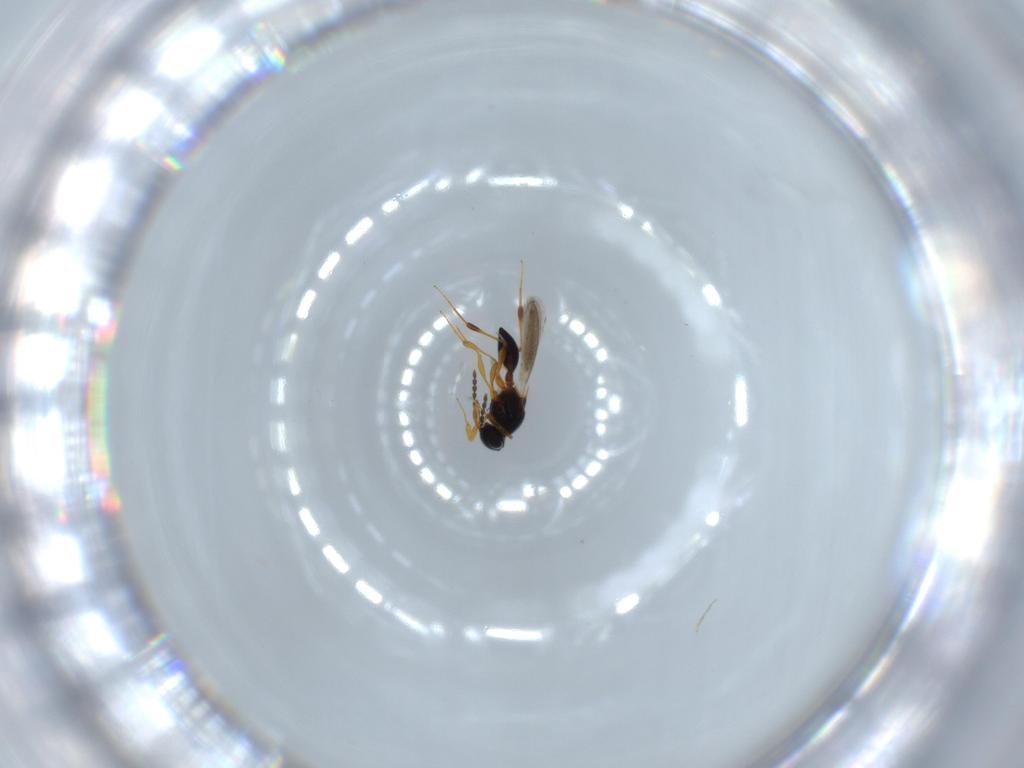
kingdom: Animalia
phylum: Arthropoda
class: Insecta
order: Hymenoptera
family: Platygastridae
